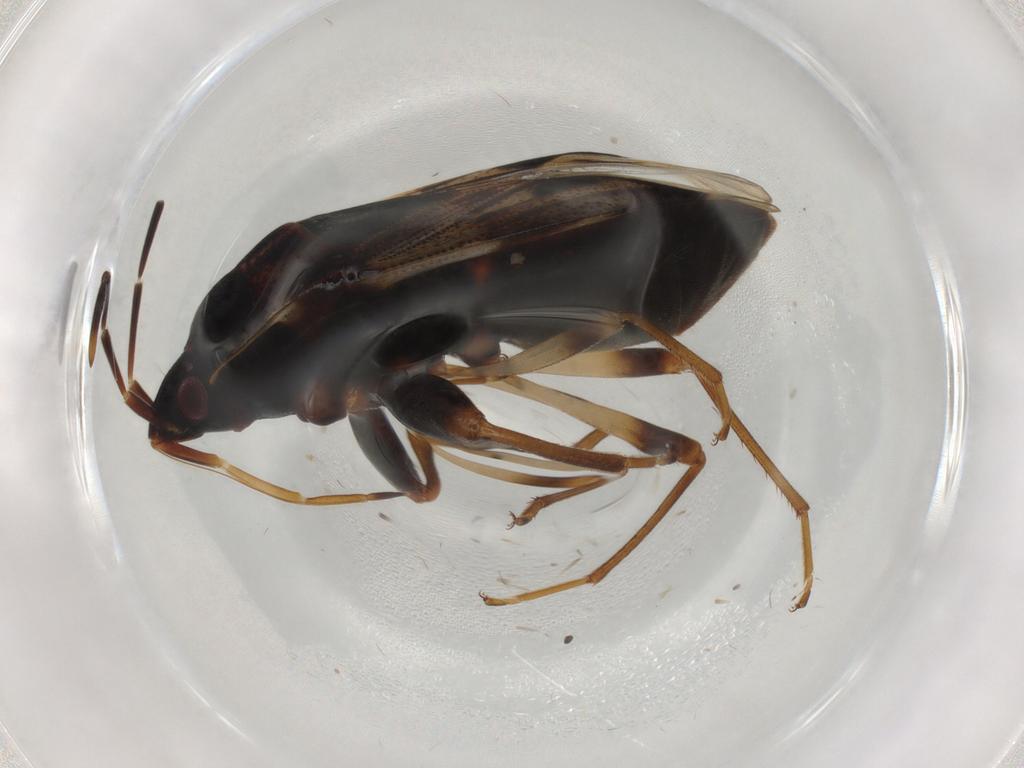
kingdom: Animalia
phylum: Arthropoda
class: Insecta
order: Hemiptera
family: Cicadellidae
